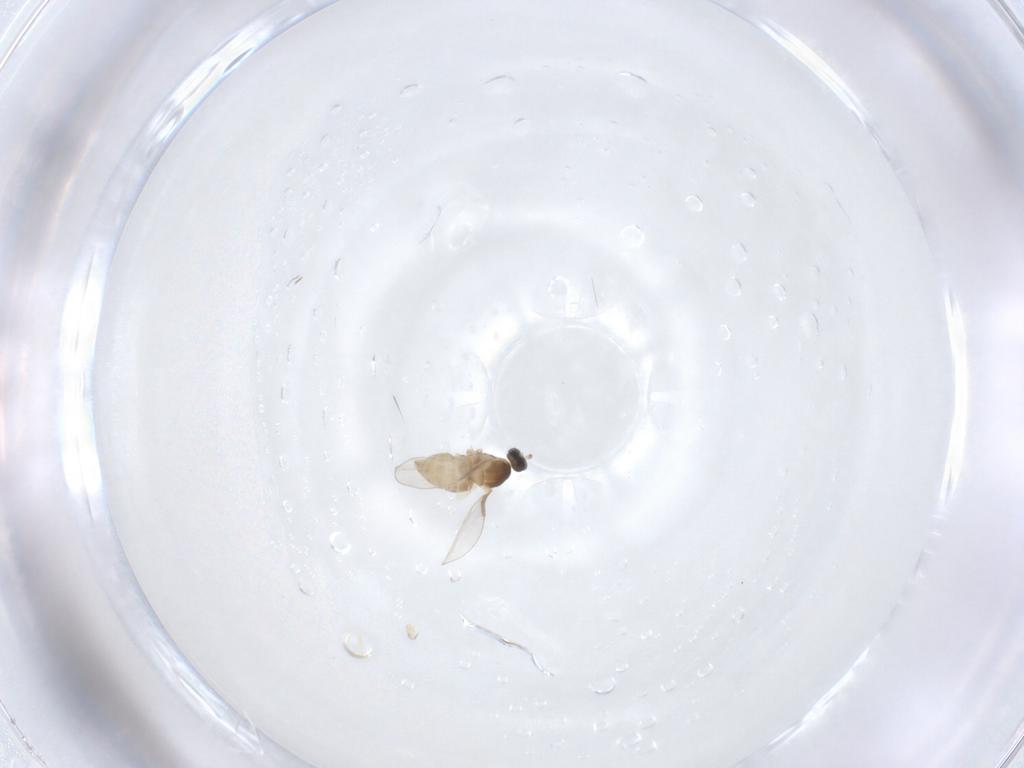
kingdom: Animalia
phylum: Arthropoda
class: Insecta
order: Diptera
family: Cecidomyiidae
